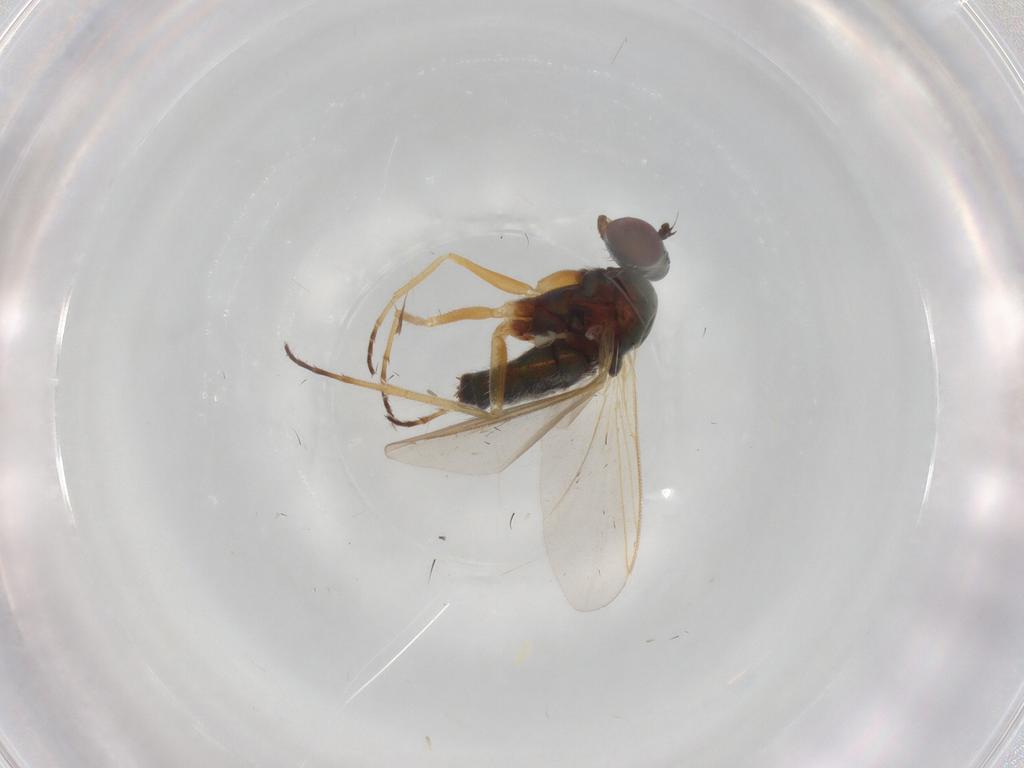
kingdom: Animalia
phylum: Arthropoda
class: Insecta
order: Diptera
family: Dolichopodidae
